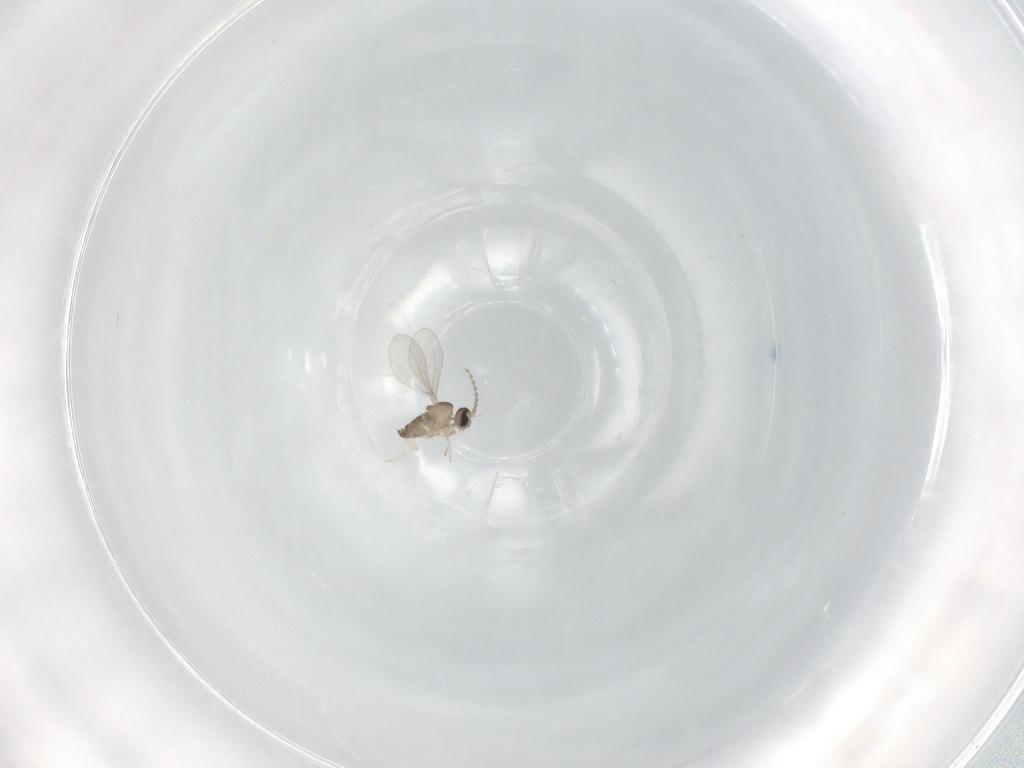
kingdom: Animalia
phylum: Arthropoda
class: Insecta
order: Diptera
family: Cecidomyiidae
